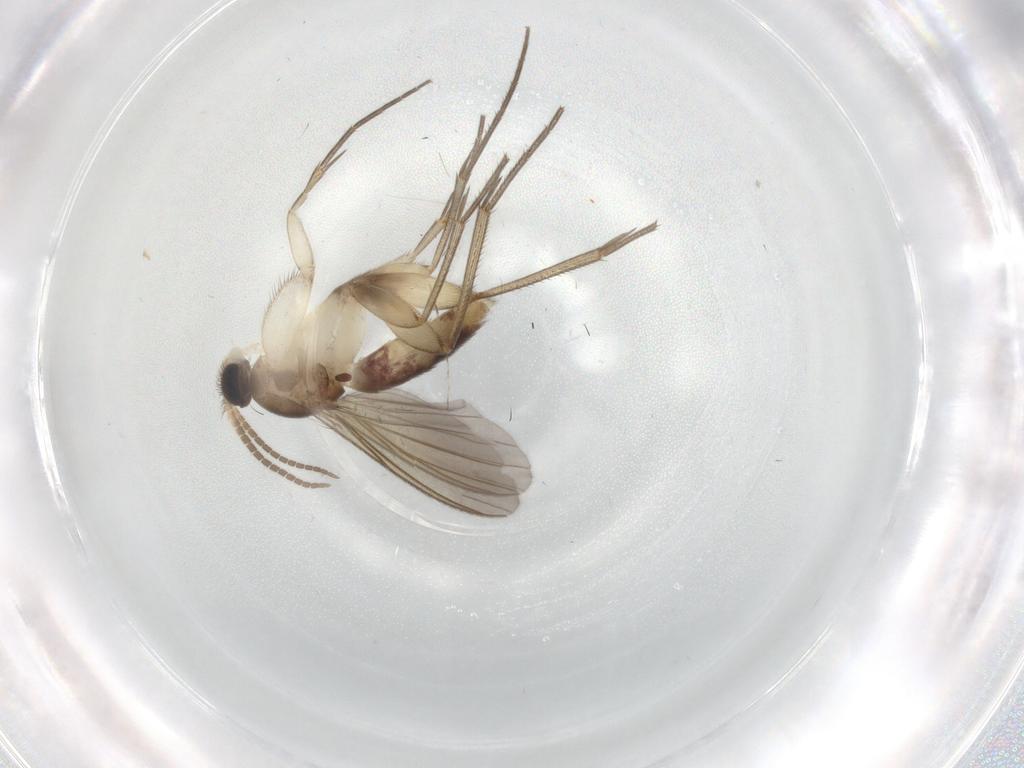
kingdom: Animalia
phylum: Arthropoda
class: Insecta
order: Diptera
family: Mycetophilidae
